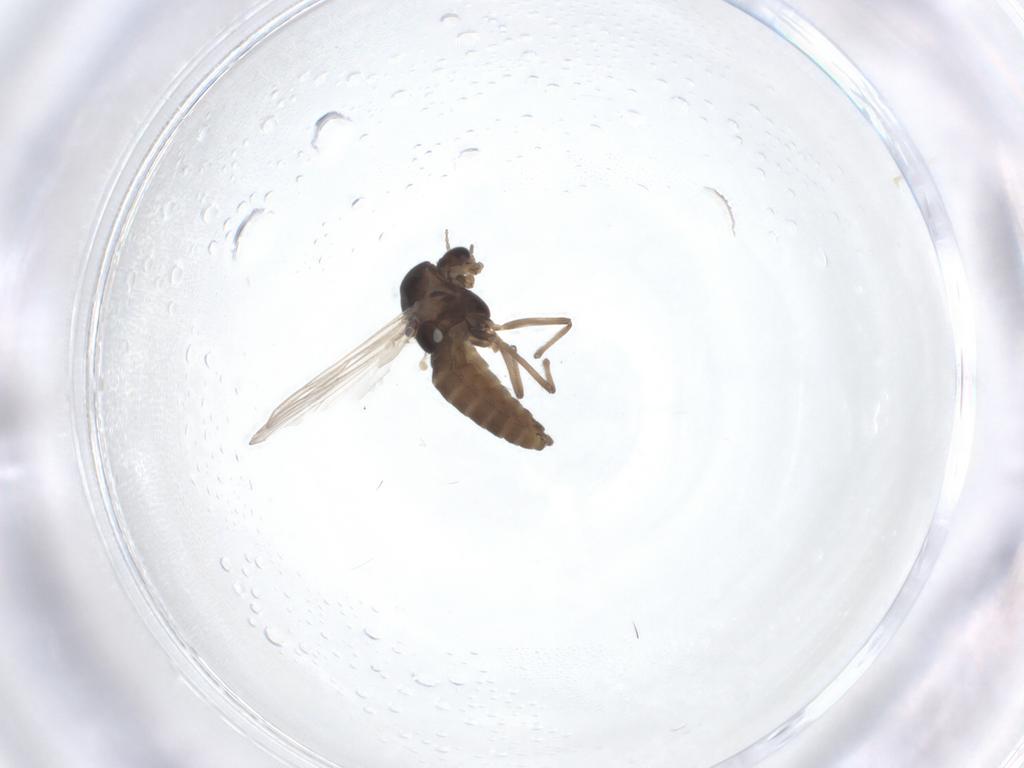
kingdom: Animalia
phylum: Arthropoda
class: Insecta
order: Diptera
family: Chironomidae
